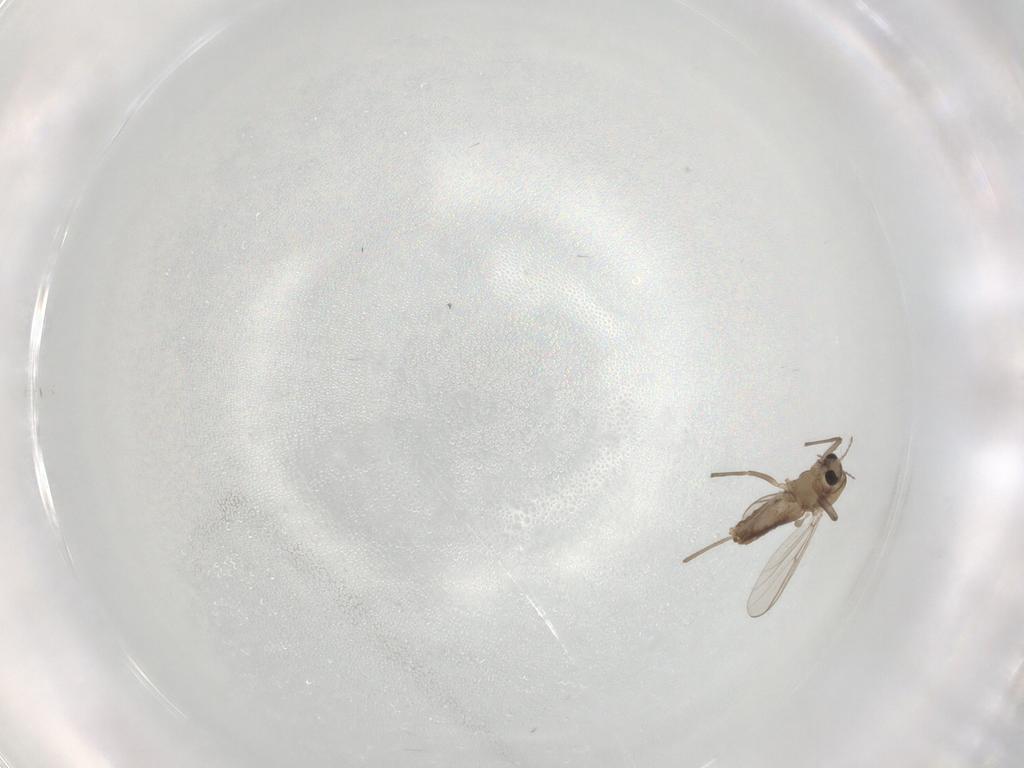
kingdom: Animalia
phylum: Arthropoda
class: Insecta
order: Diptera
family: Chironomidae
